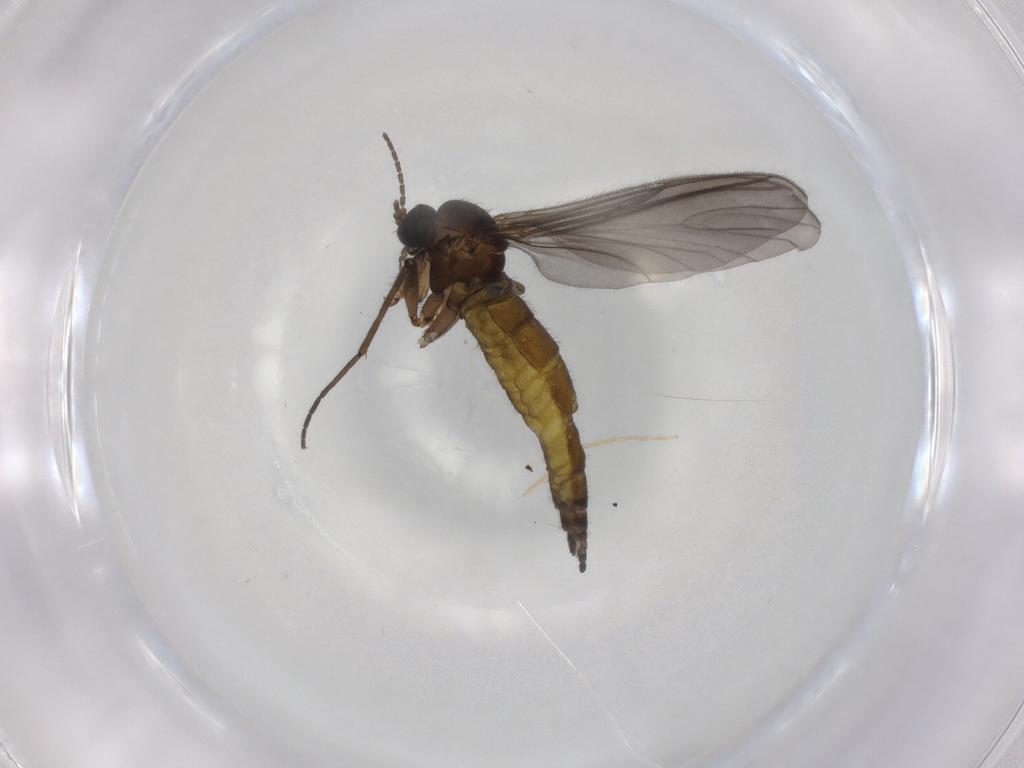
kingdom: Animalia
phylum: Arthropoda
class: Insecta
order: Diptera
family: Sciaridae
